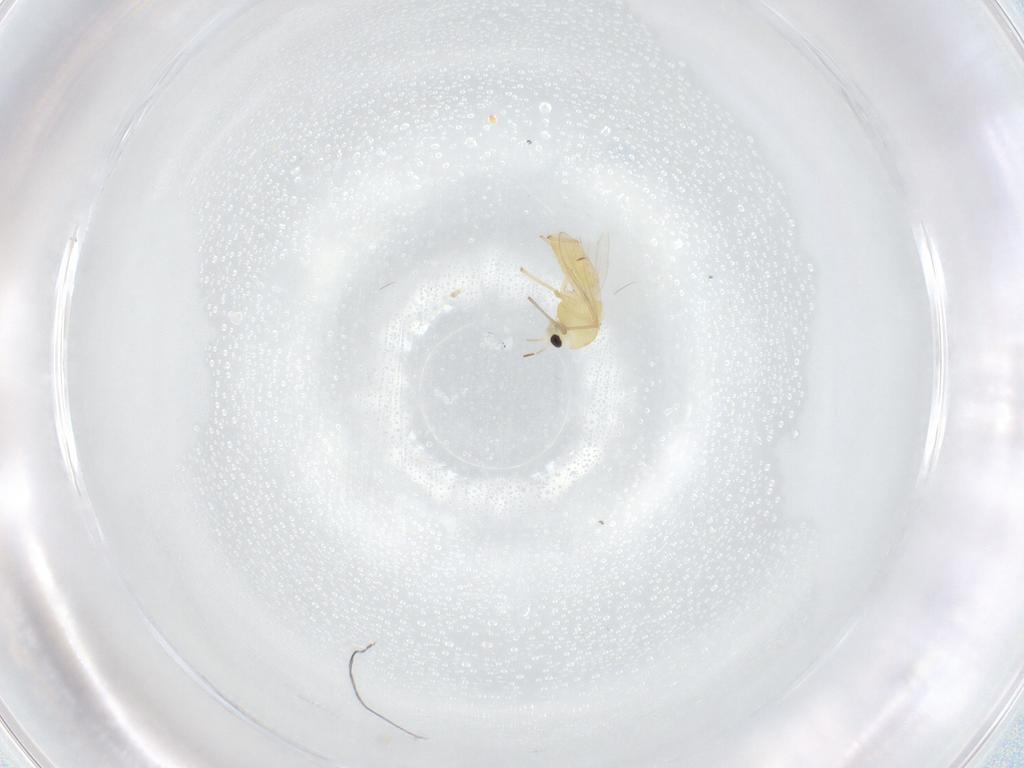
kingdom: Animalia
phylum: Arthropoda
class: Insecta
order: Diptera
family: Chironomidae
